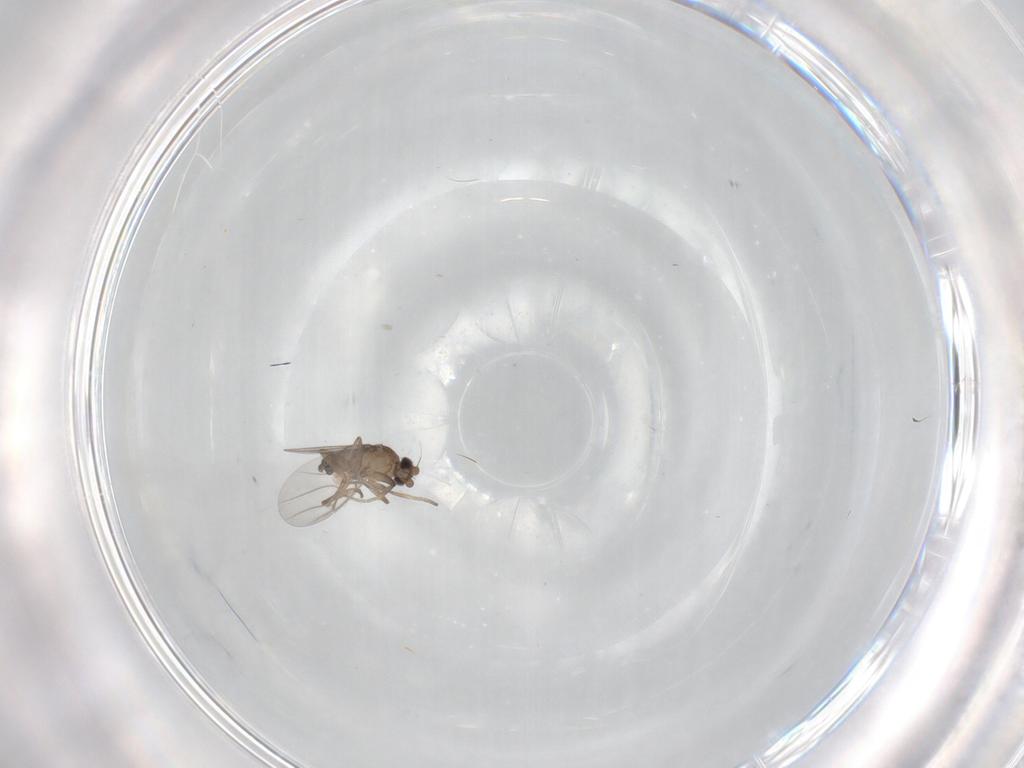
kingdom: Animalia
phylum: Arthropoda
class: Insecta
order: Diptera
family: Phoridae
